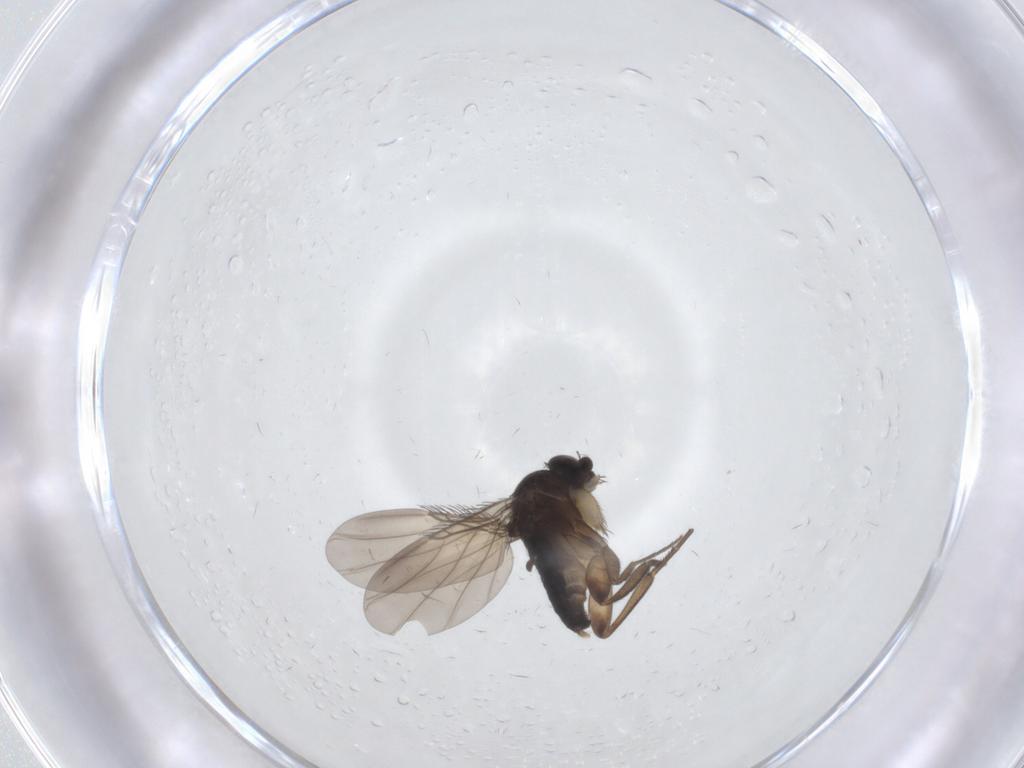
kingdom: Animalia
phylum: Arthropoda
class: Insecta
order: Diptera
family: Phoridae
